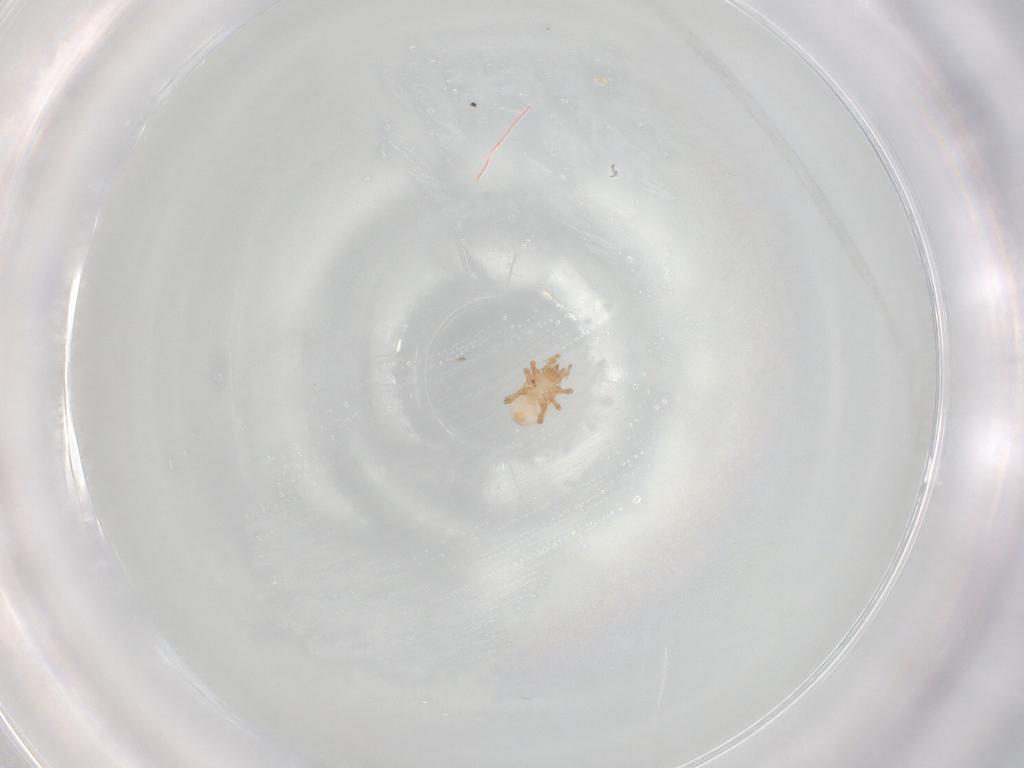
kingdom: Animalia
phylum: Arthropoda
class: Arachnida
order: Mesostigmata
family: Ascidae
